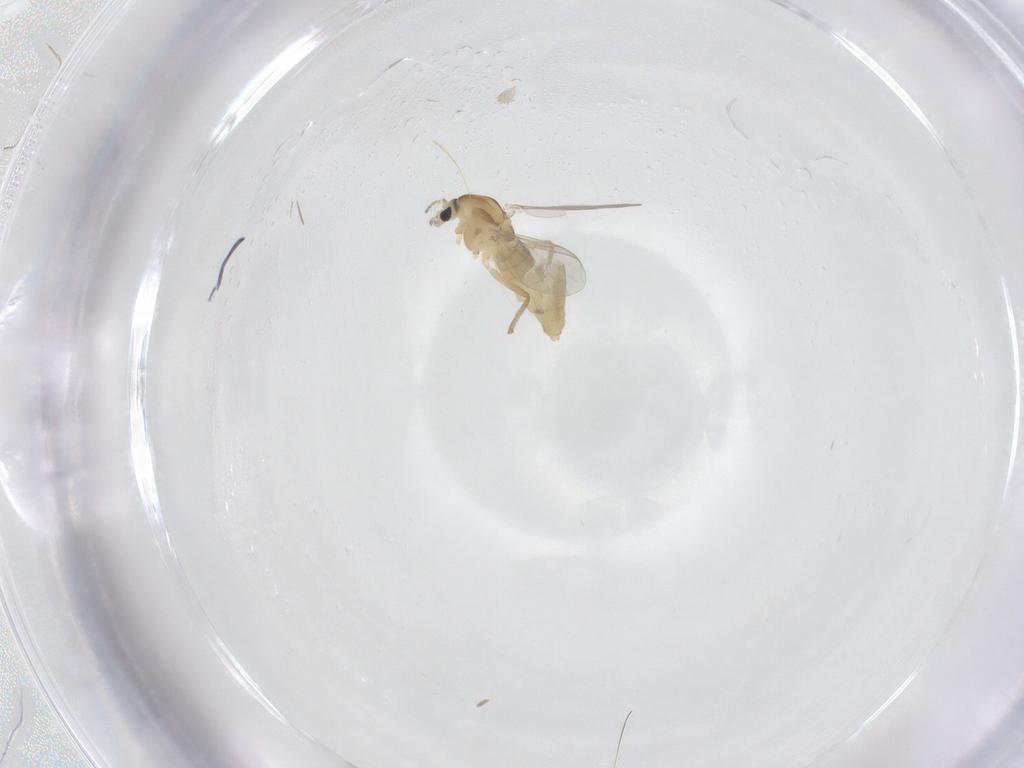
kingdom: Animalia
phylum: Arthropoda
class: Insecta
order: Diptera
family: Chironomidae
